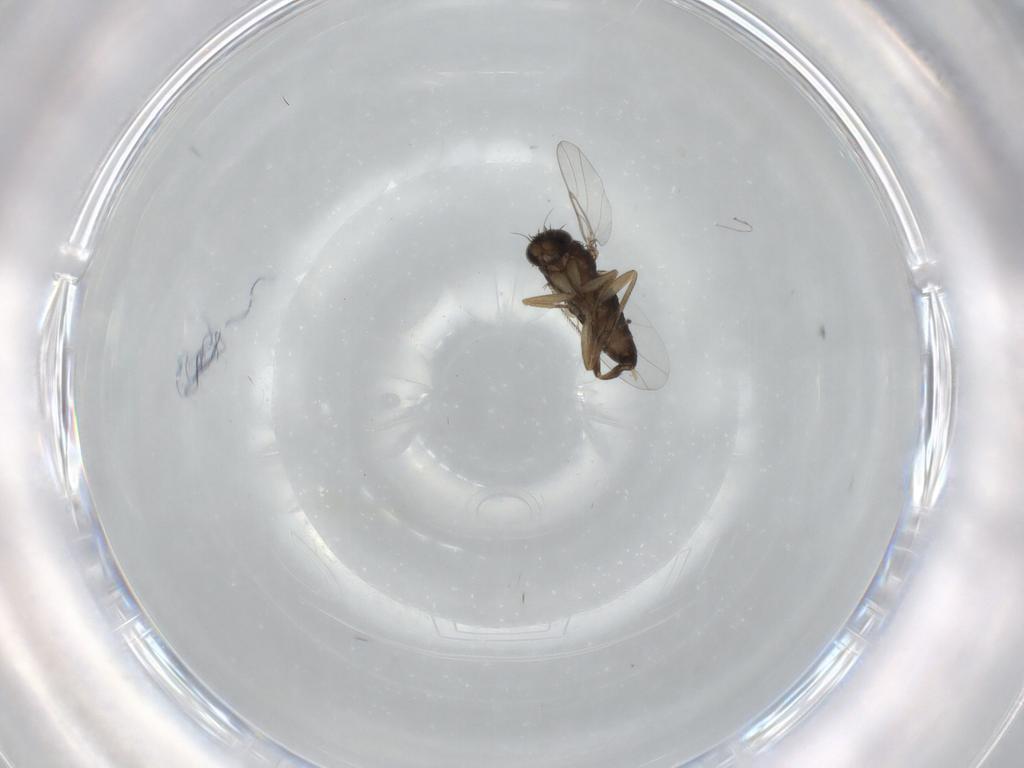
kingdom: Animalia
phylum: Arthropoda
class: Insecta
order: Diptera
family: Phoridae
